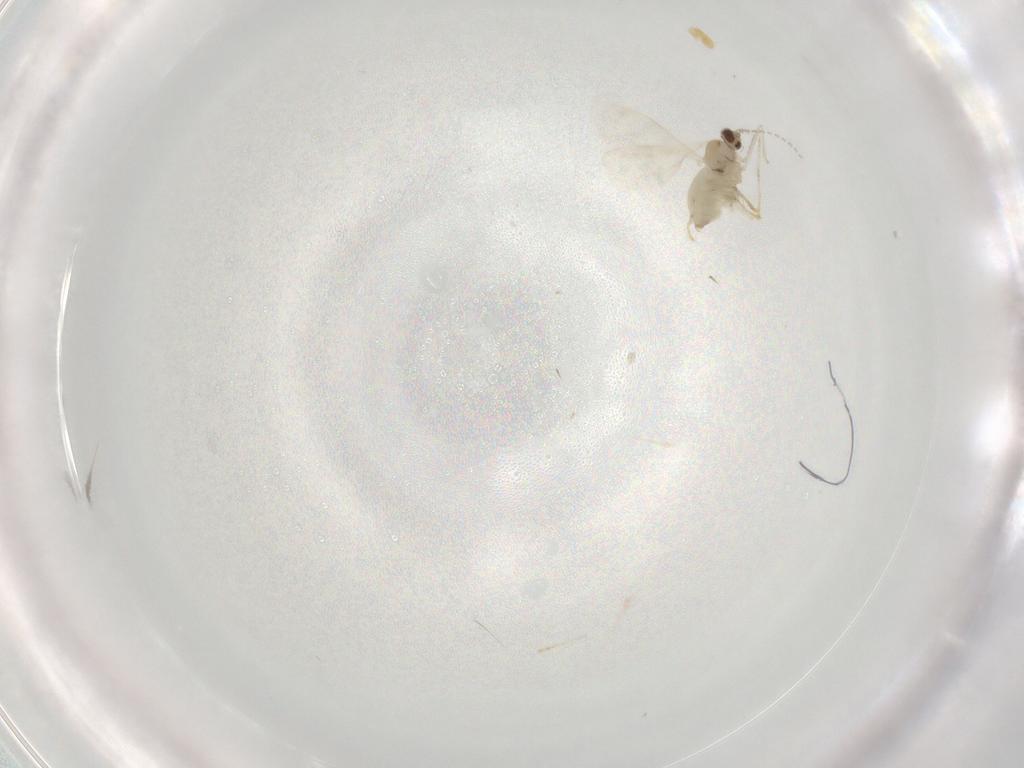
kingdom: Animalia
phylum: Arthropoda
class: Insecta
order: Diptera
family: Cecidomyiidae
